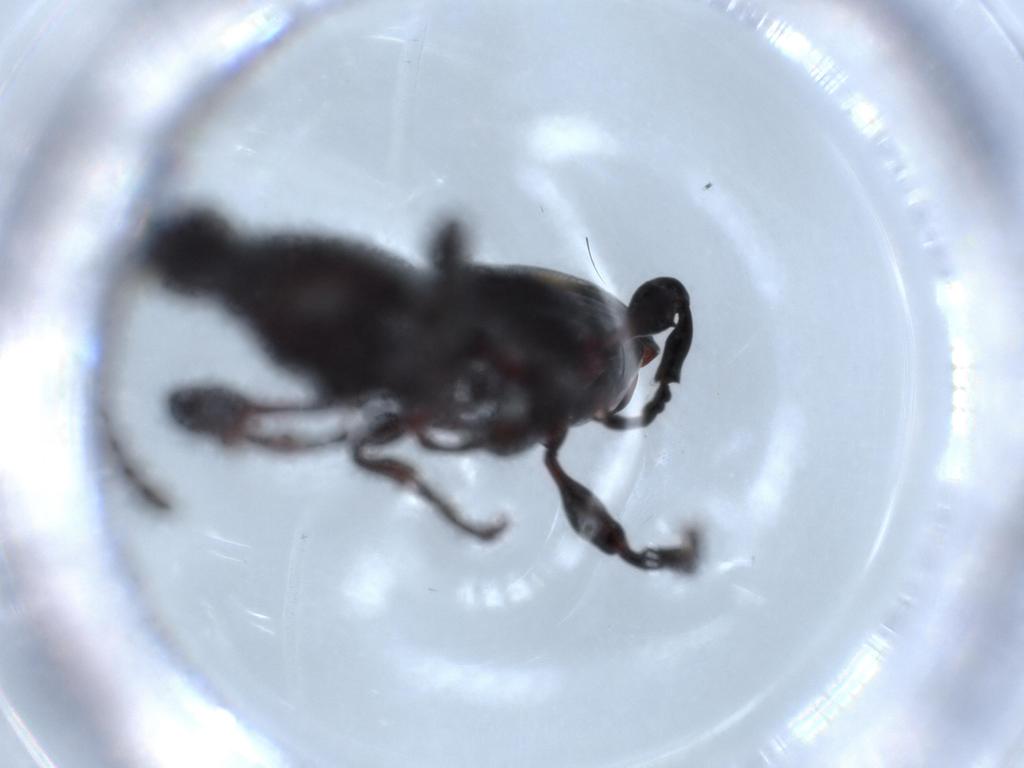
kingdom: Animalia
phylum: Arthropoda
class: Insecta
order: Coleoptera
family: Brentidae
